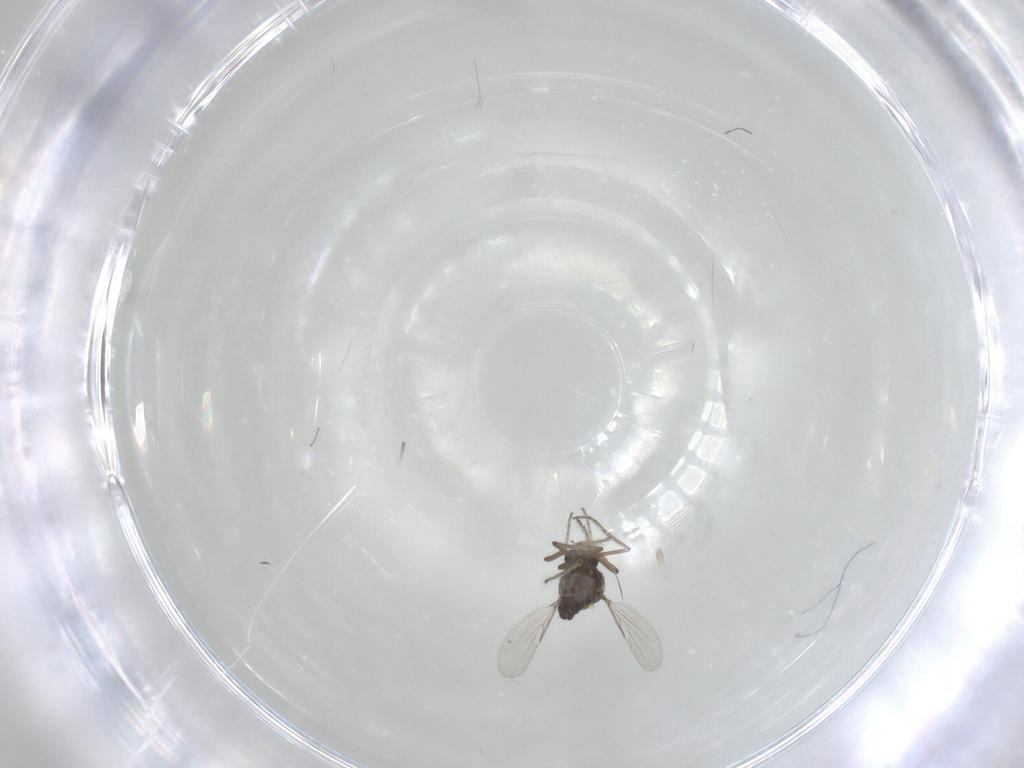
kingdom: Animalia
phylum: Arthropoda
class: Insecta
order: Diptera
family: Ceratopogonidae
